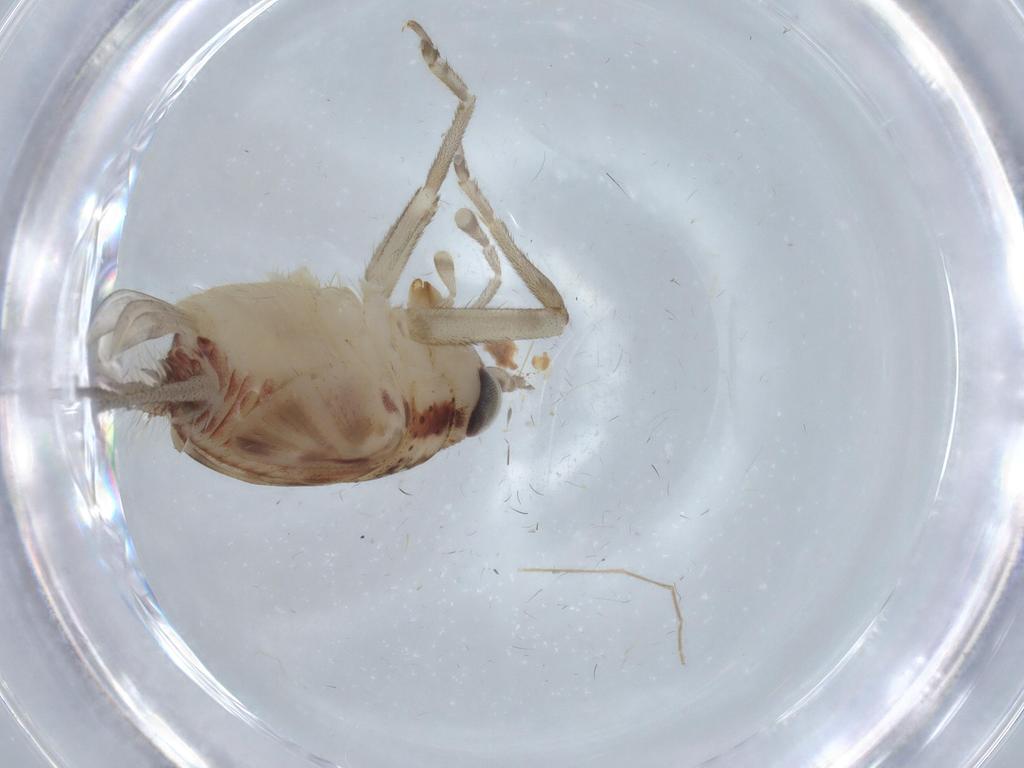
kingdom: Animalia
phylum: Arthropoda
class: Insecta
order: Orthoptera
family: Trigonidiidae
